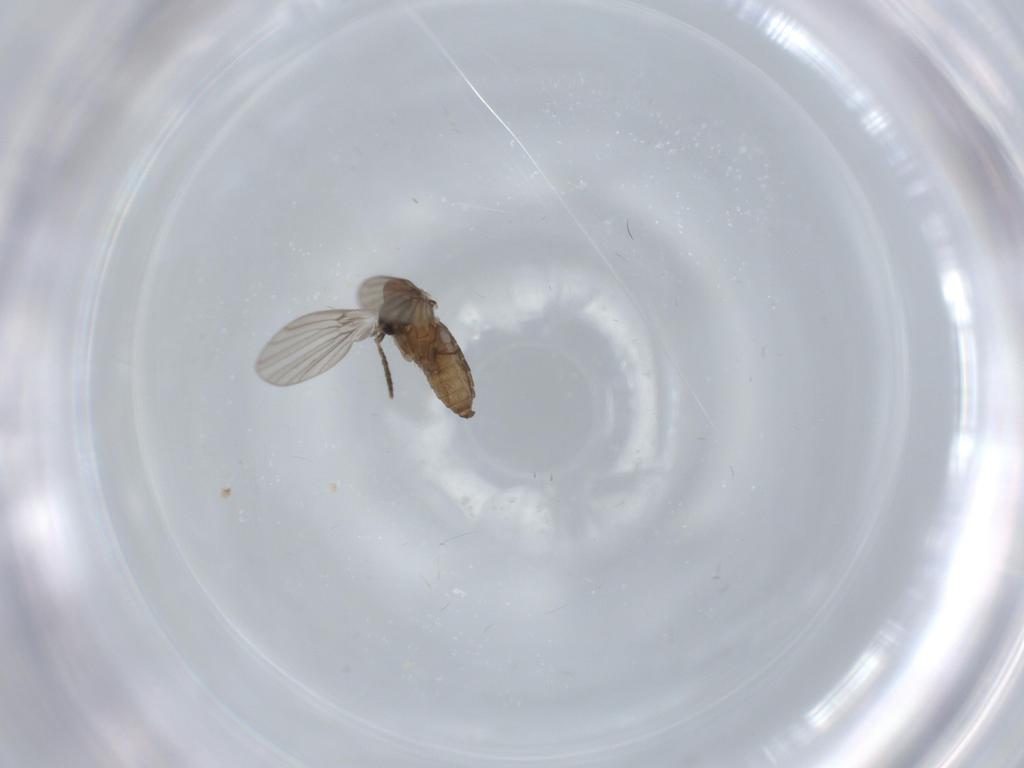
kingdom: Animalia
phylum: Arthropoda
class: Insecta
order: Diptera
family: Psychodidae
